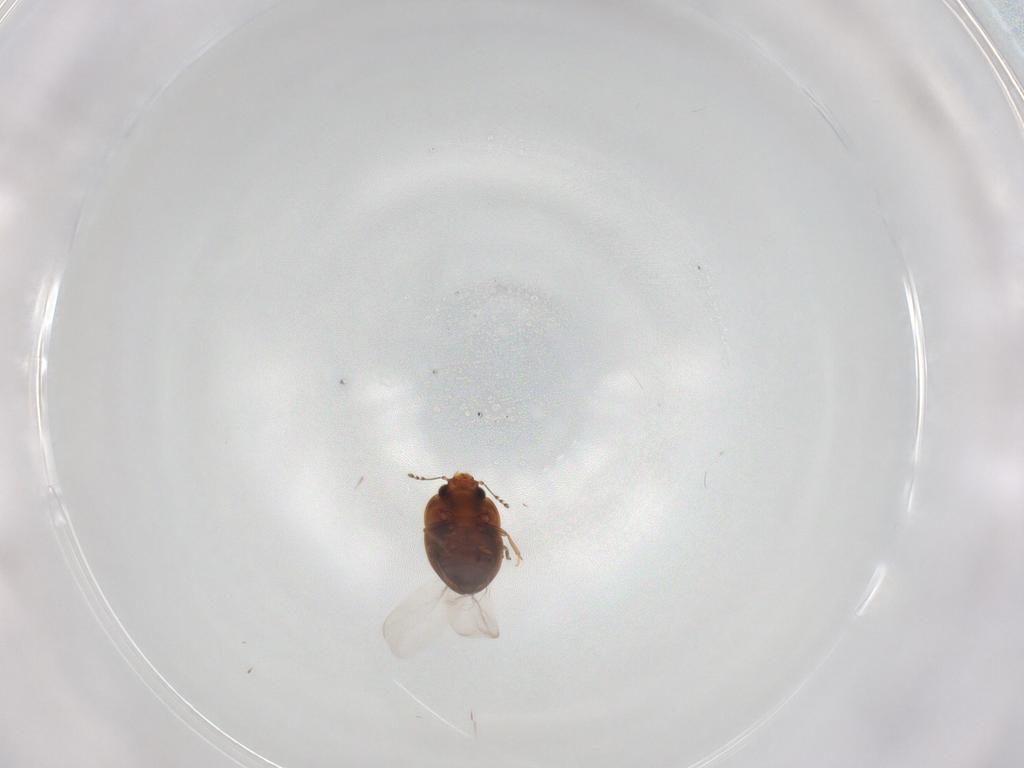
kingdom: Animalia
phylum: Arthropoda
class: Insecta
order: Coleoptera
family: Laemophloeidae
